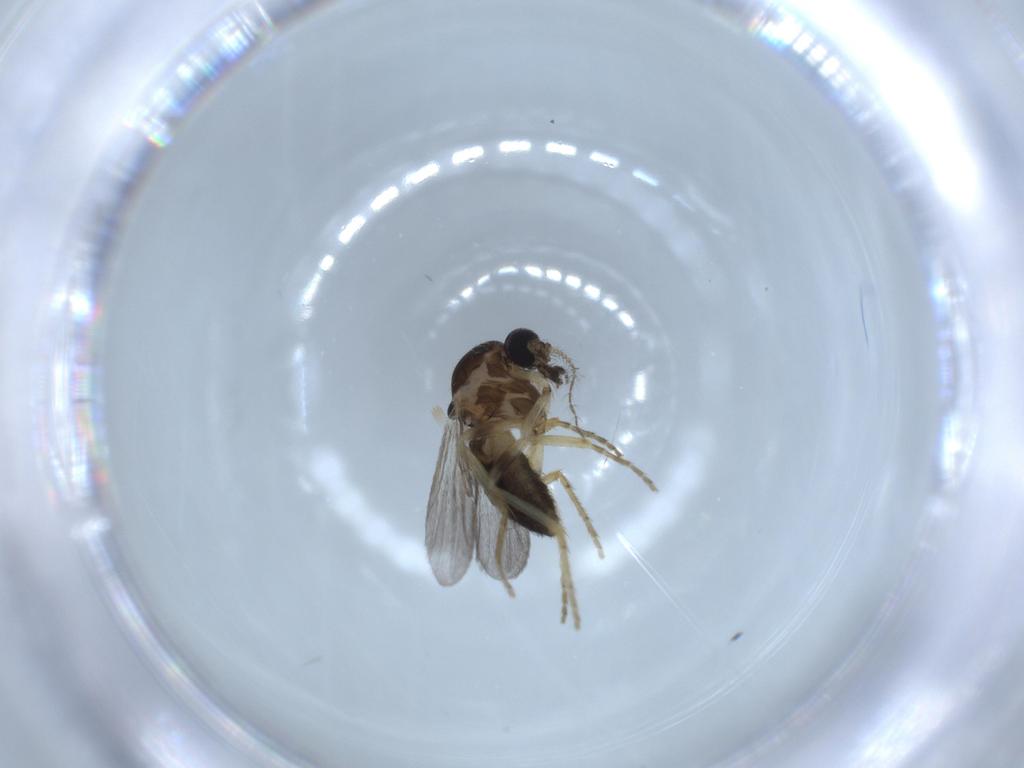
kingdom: Animalia
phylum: Arthropoda
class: Insecta
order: Diptera
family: Ceratopogonidae
